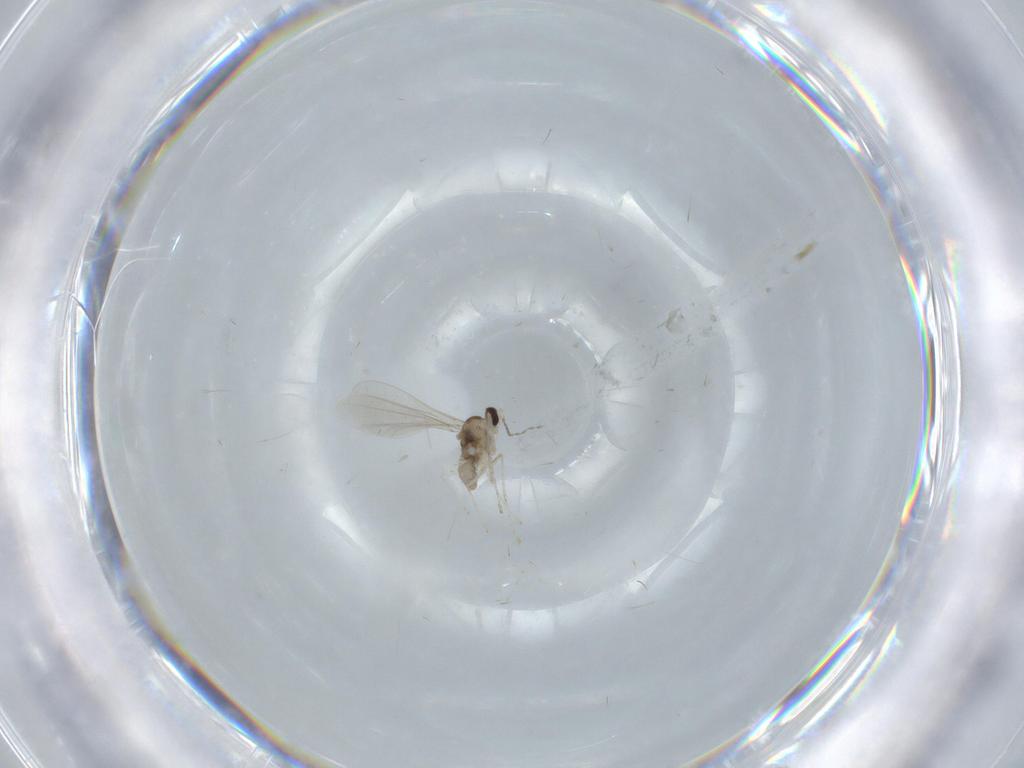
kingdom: Animalia
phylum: Arthropoda
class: Insecta
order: Diptera
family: Cecidomyiidae
